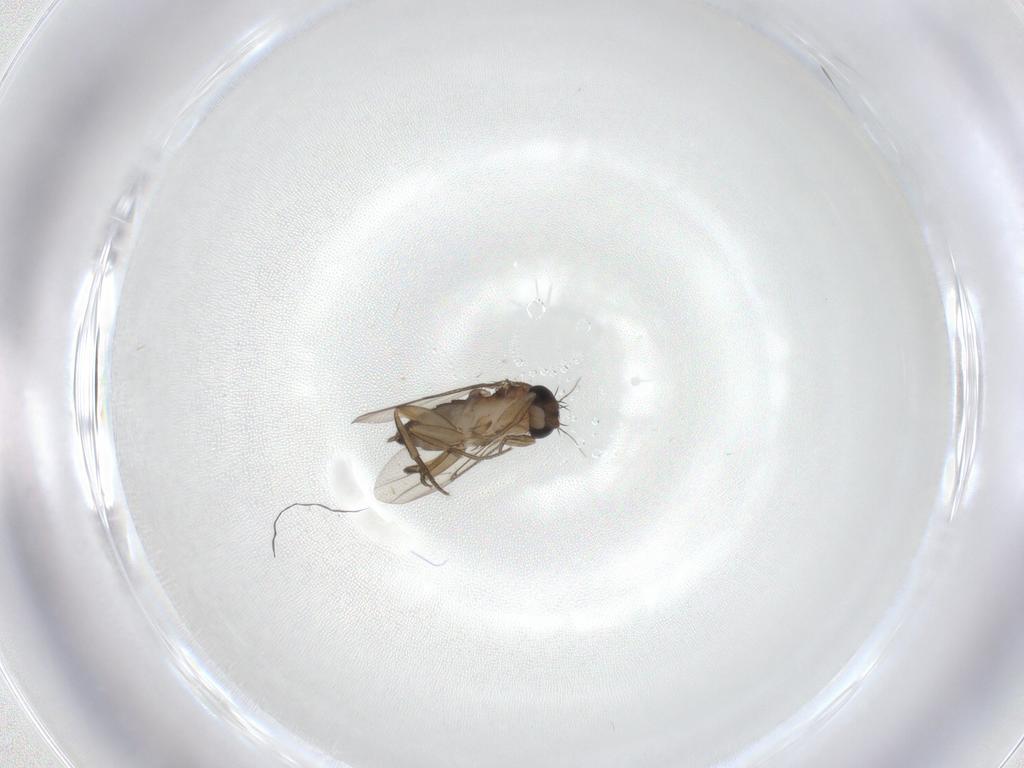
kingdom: Animalia
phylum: Arthropoda
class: Insecta
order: Diptera
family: Phoridae
